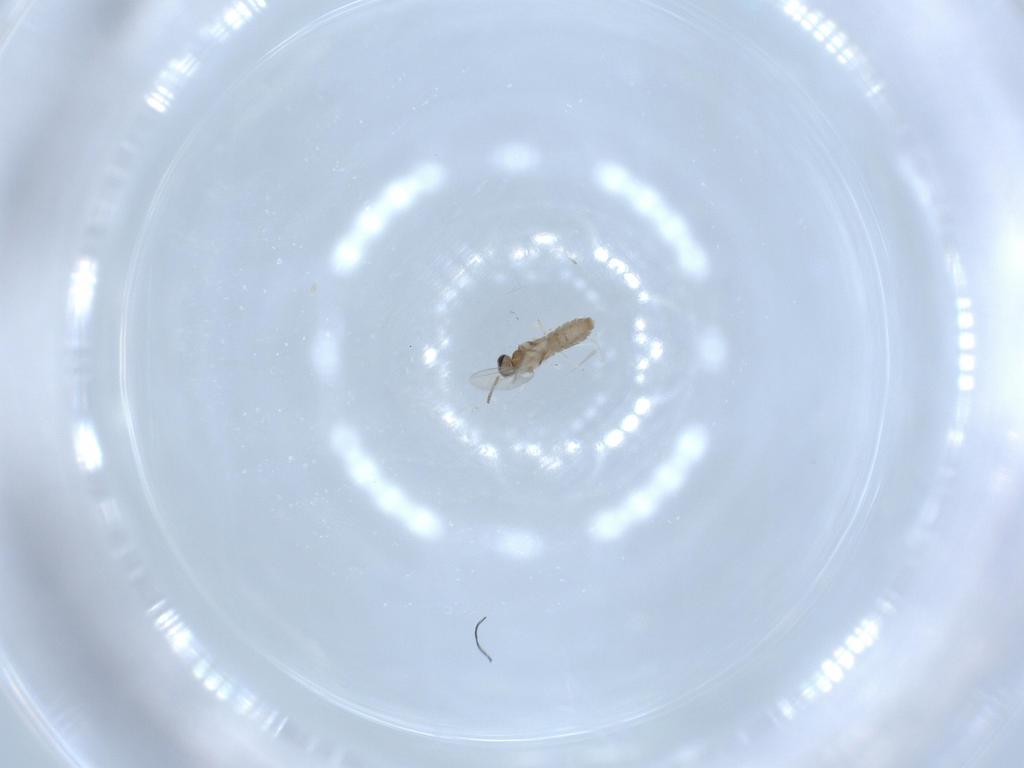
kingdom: Animalia
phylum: Arthropoda
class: Insecta
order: Diptera
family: Cecidomyiidae
